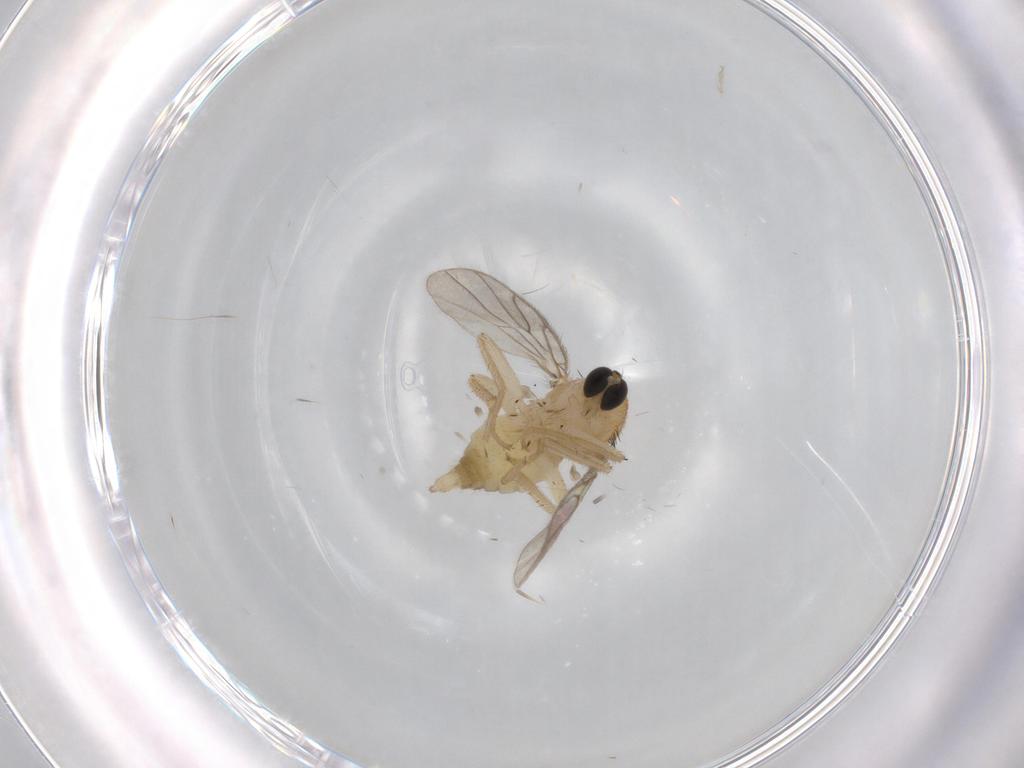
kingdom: Animalia
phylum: Arthropoda
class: Insecta
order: Diptera
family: Hybotidae
